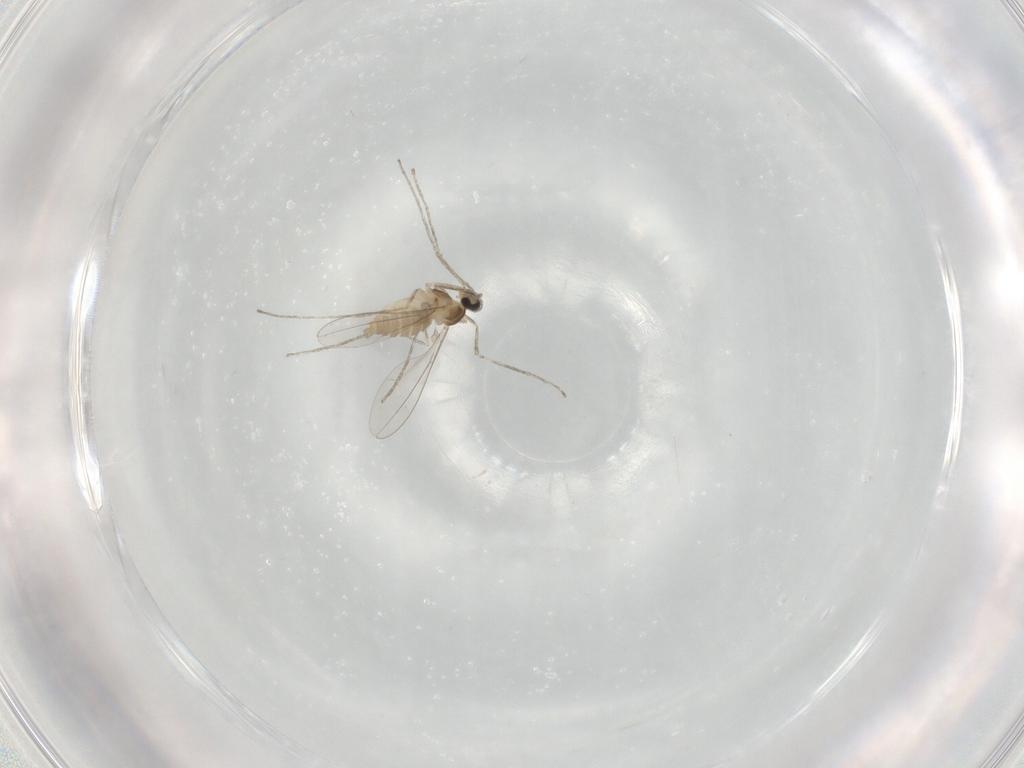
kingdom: Animalia
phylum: Arthropoda
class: Insecta
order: Diptera
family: Cecidomyiidae
